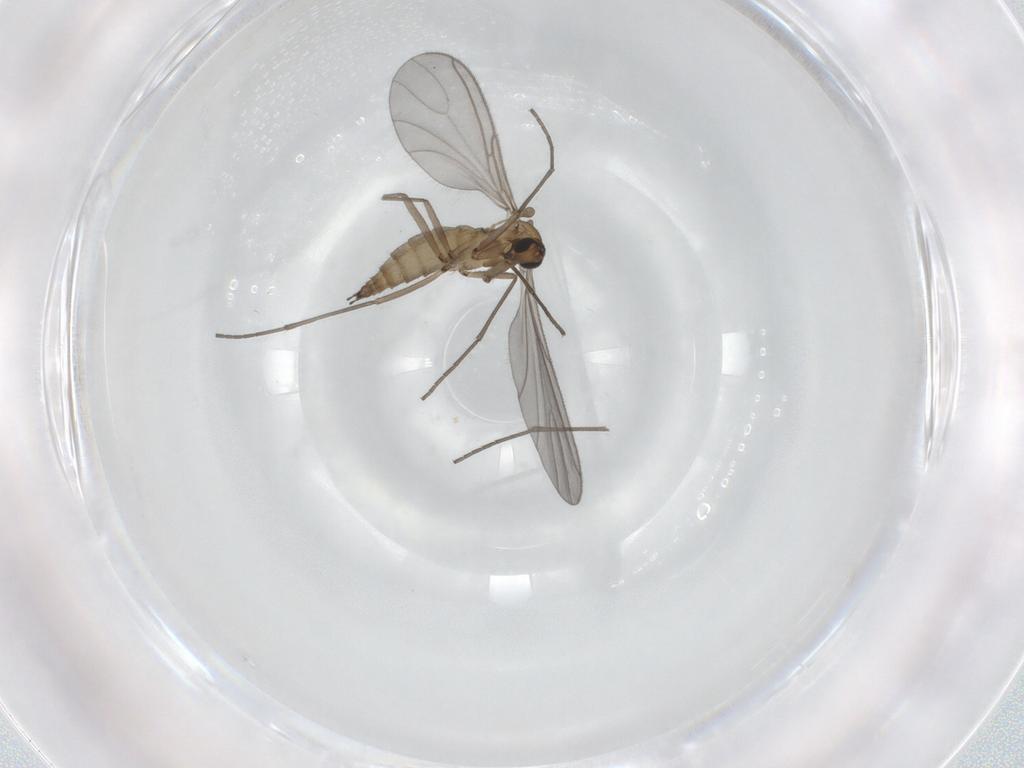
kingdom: Animalia
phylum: Arthropoda
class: Insecta
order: Diptera
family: Sciaridae
